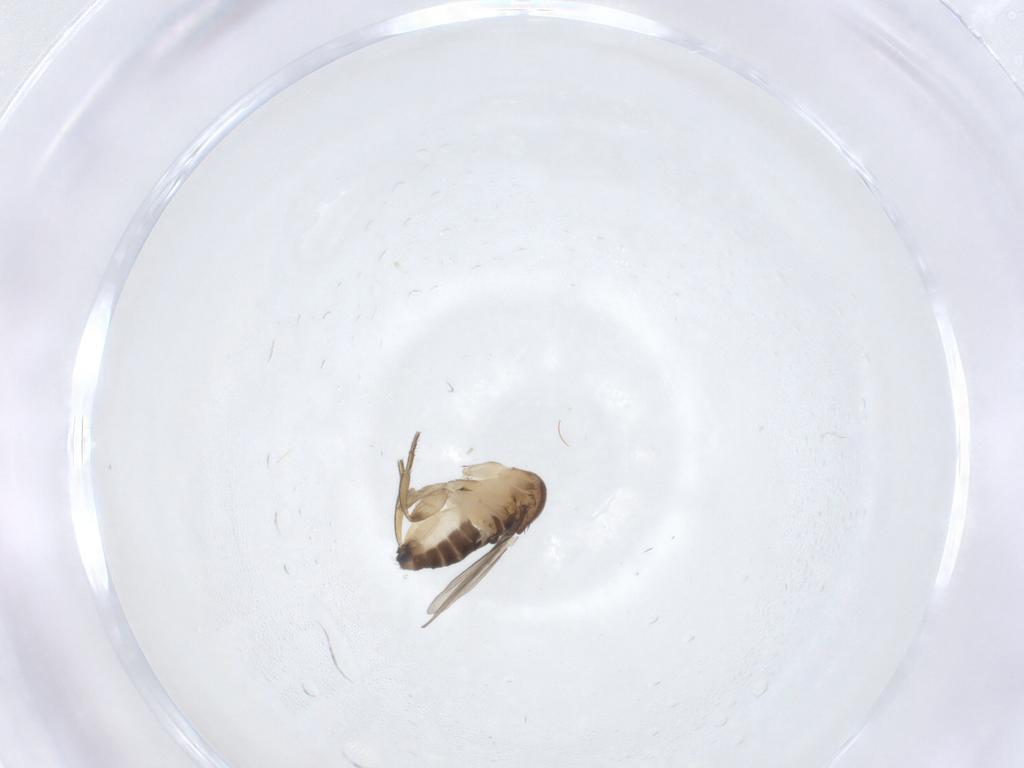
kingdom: Animalia
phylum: Arthropoda
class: Insecta
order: Diptera
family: Phoridae
